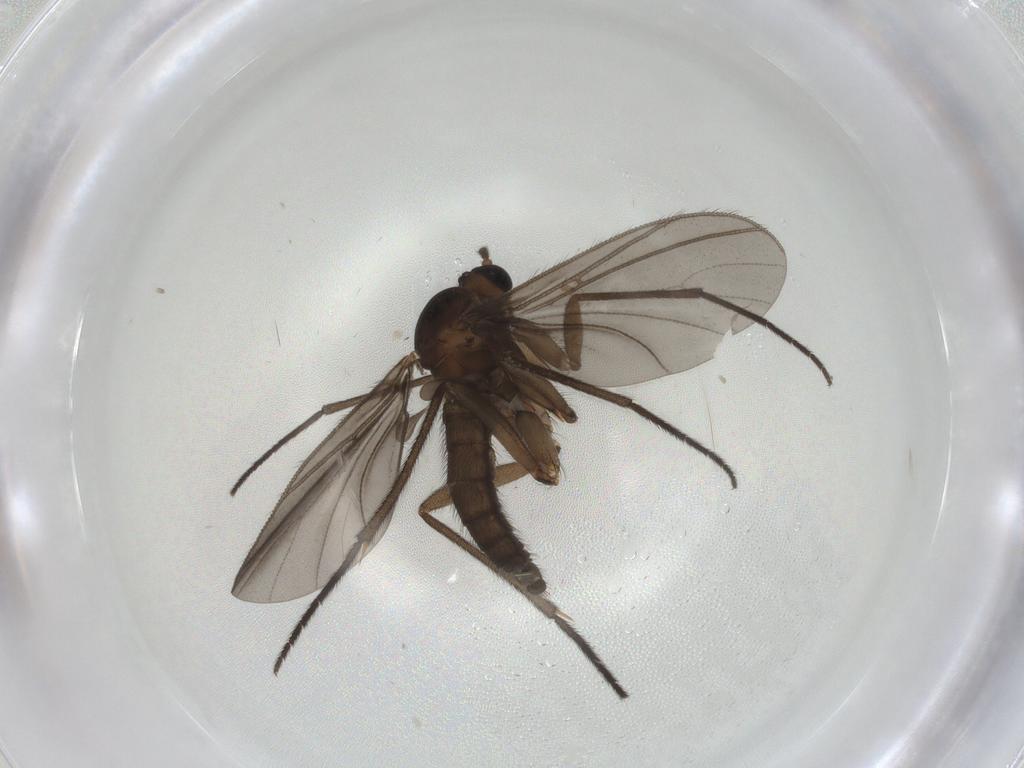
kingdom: Animalia
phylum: Arthropoda
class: Insecta
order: Diptera
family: Sciaridae
